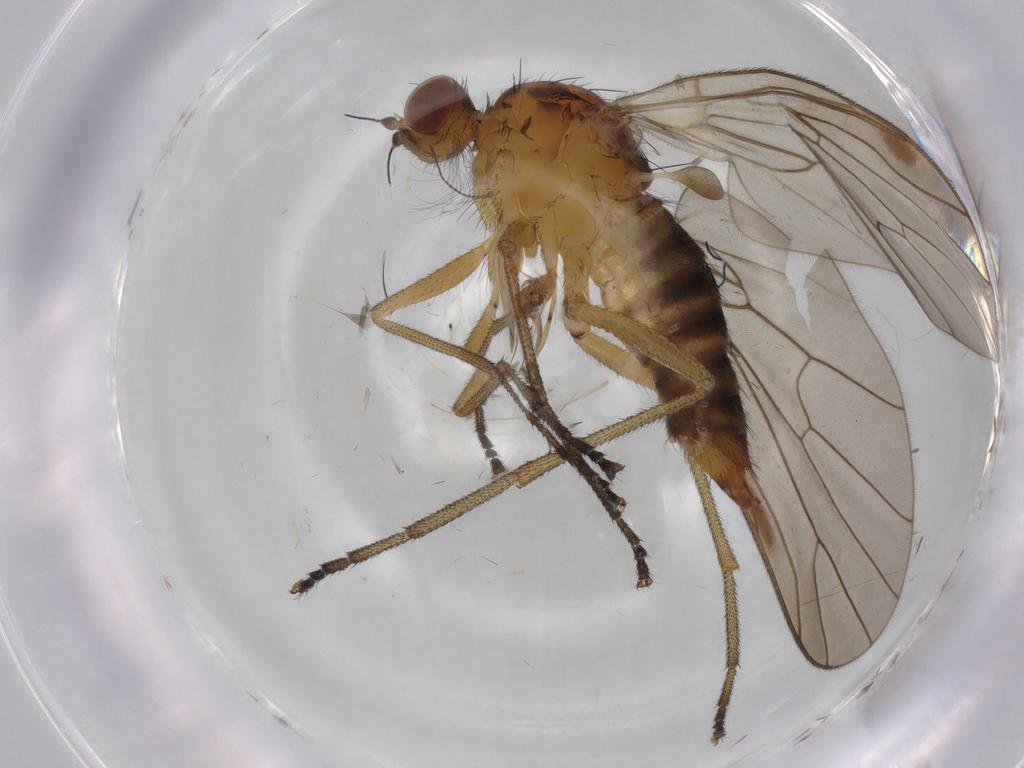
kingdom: Animalia
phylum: Arthropoda
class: Insecta
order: Diptera
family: Brachystomatidae
